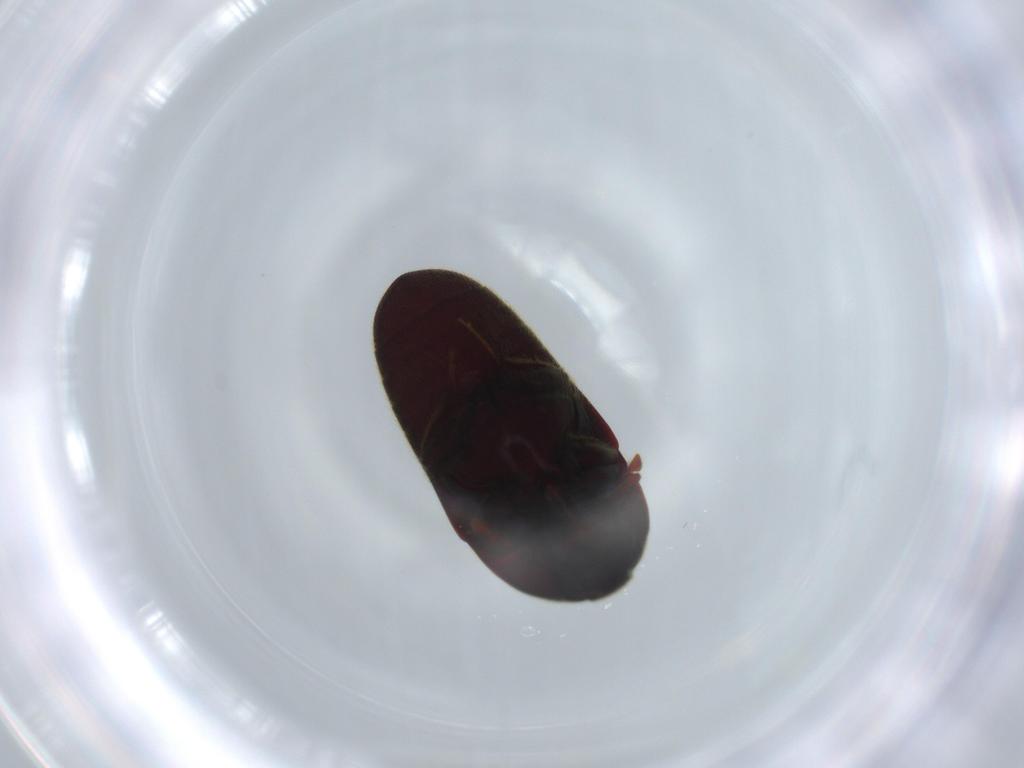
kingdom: Animalia
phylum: Arthropoda
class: Insecta
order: Coleoptera
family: Throscidae
